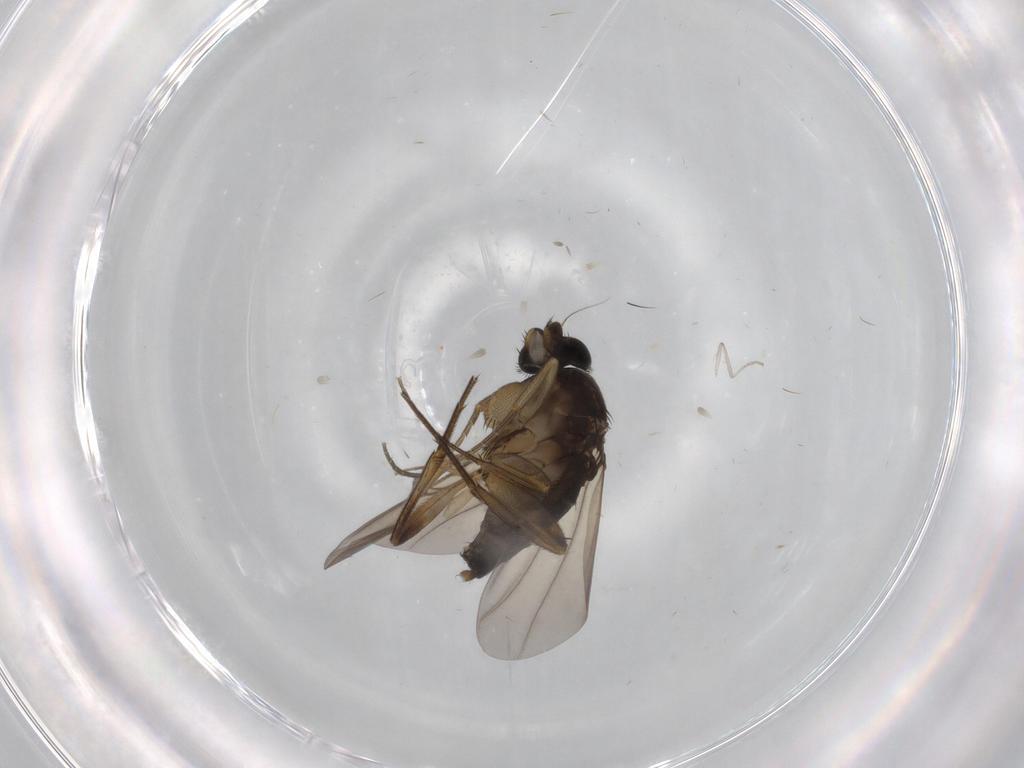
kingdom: Animalia
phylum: Arthropoda
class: Insecta
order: Diptera
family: Phoridae
